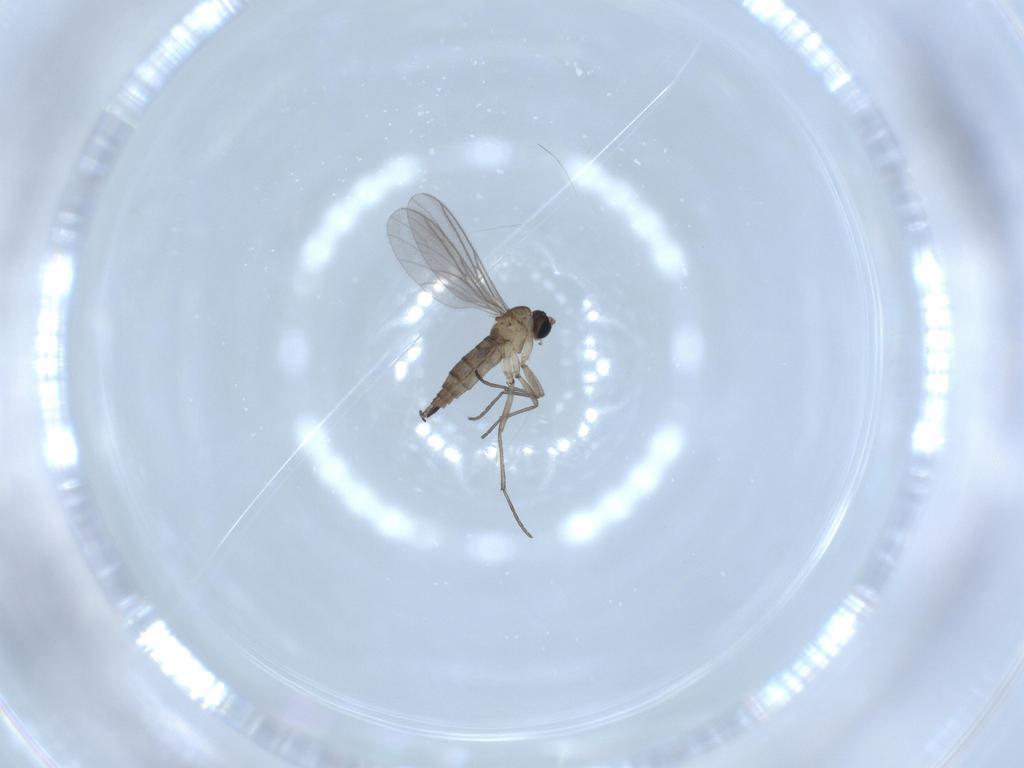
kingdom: Animalia
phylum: Arthropoda
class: Insecta
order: Diptera
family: Sciaridae
